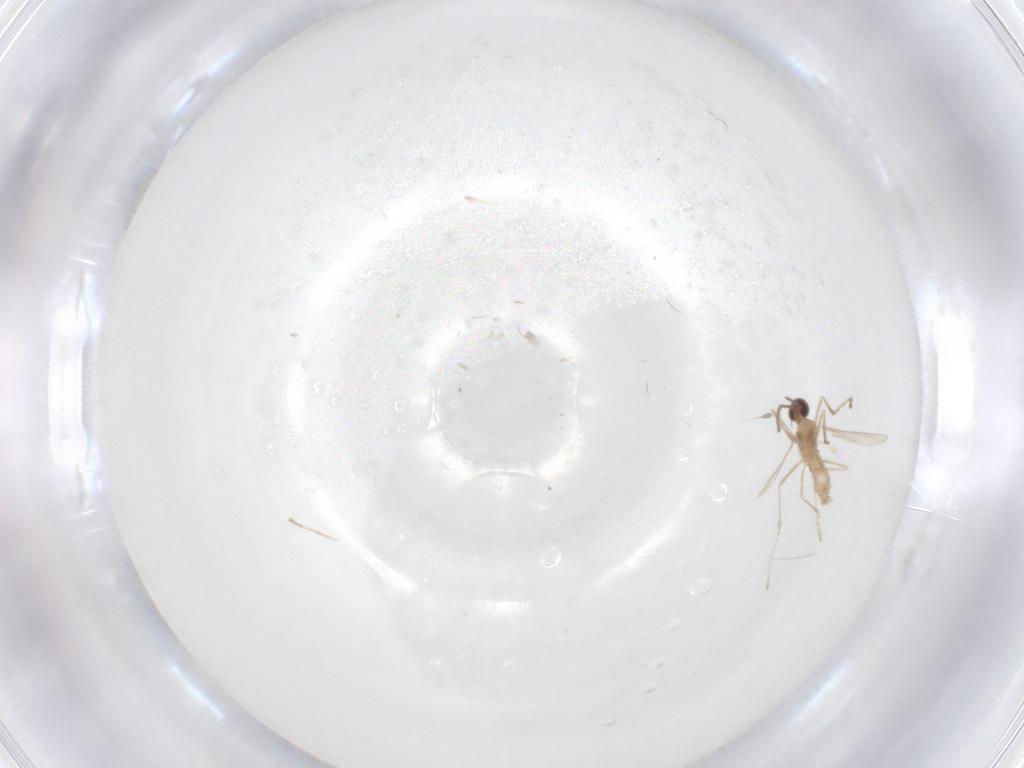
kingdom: Animalia
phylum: Arthropoda
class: Insecta
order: Diptera
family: Cecidomyiidae
